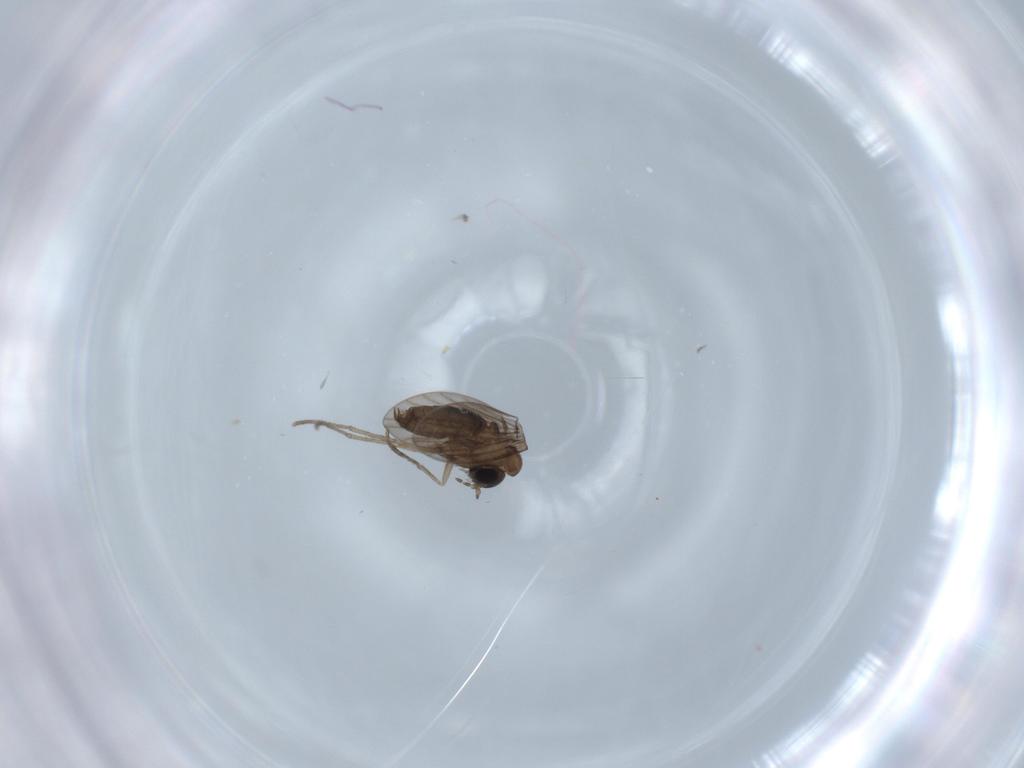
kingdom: Animalia
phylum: Arthropoda
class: Insecta
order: Diptera
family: Psychodidae
